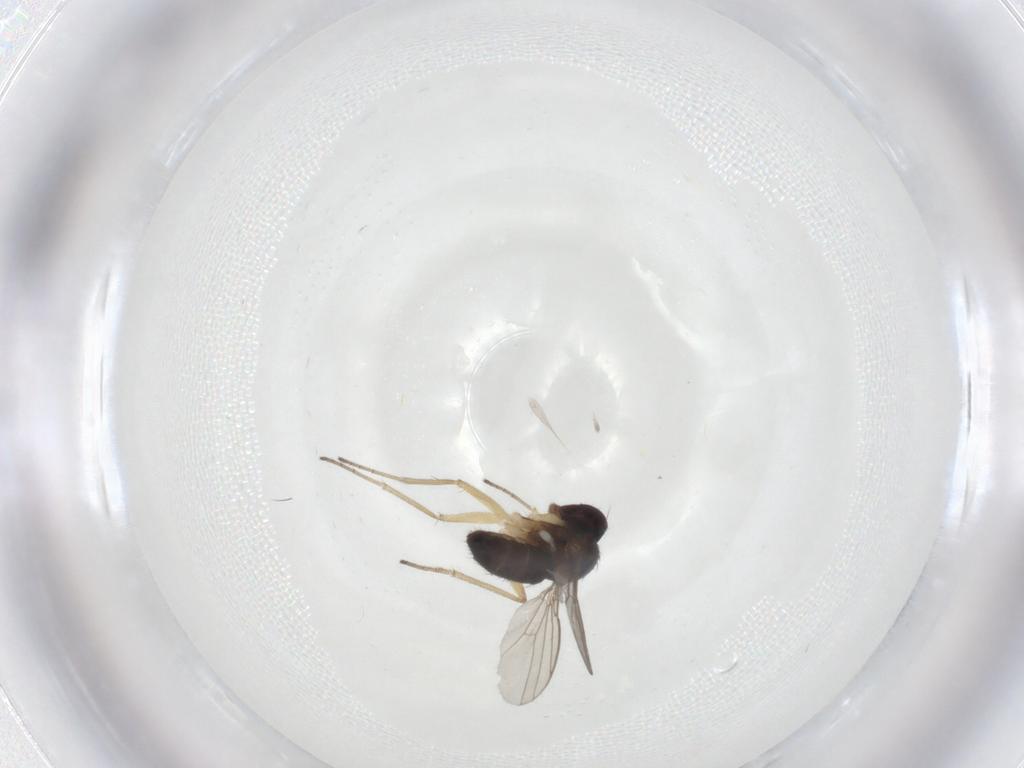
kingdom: Animalia
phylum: Arthropoda
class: Insecta
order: Diptera
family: Dolichopodidae
